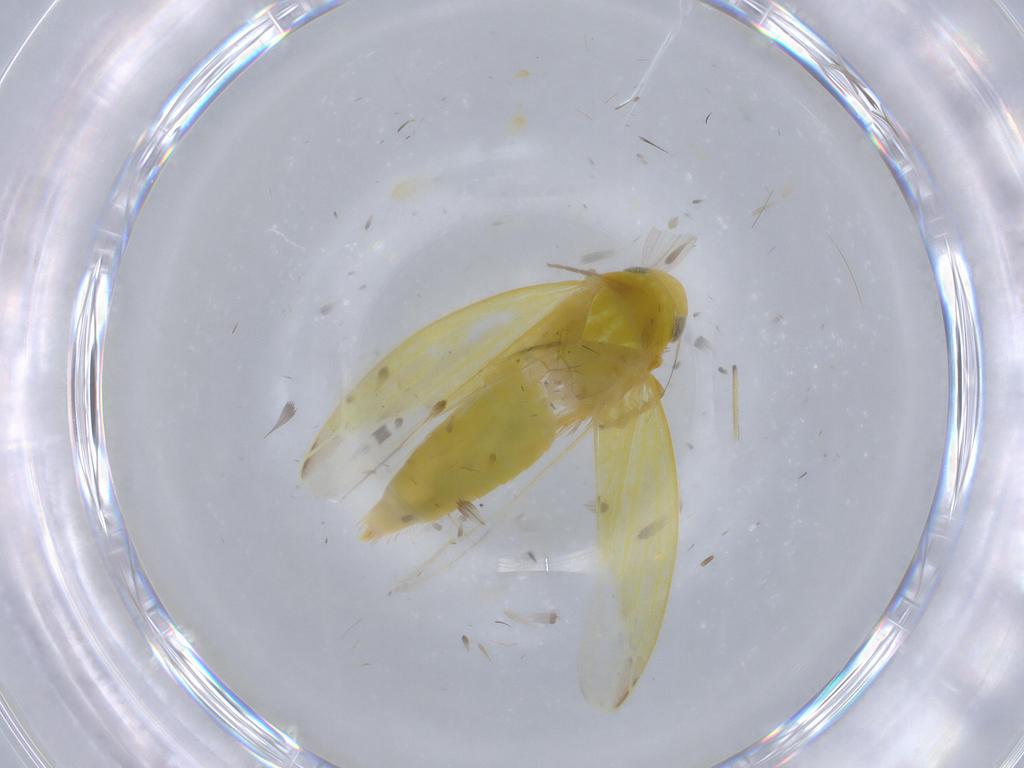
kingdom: Animalia
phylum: Arthropoda
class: Insecta
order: Hemiptera
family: Cicadellidae
